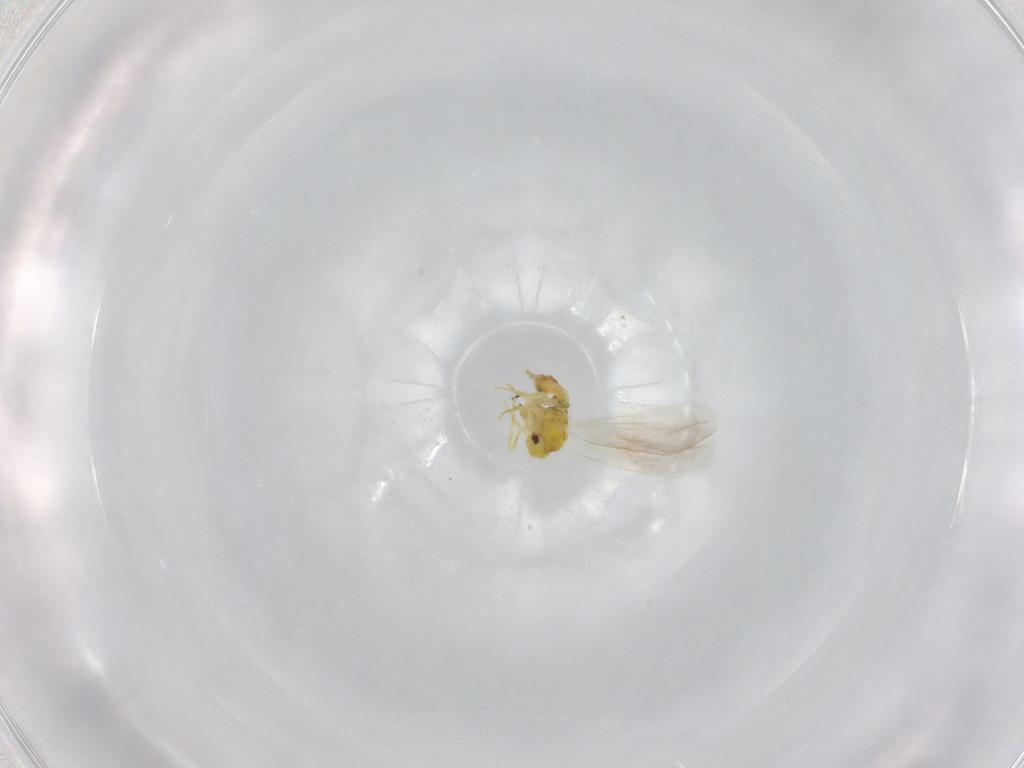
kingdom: Animalia
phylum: Arthropoda
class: Insecta
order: Hemiptera
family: Aleyrodidae
